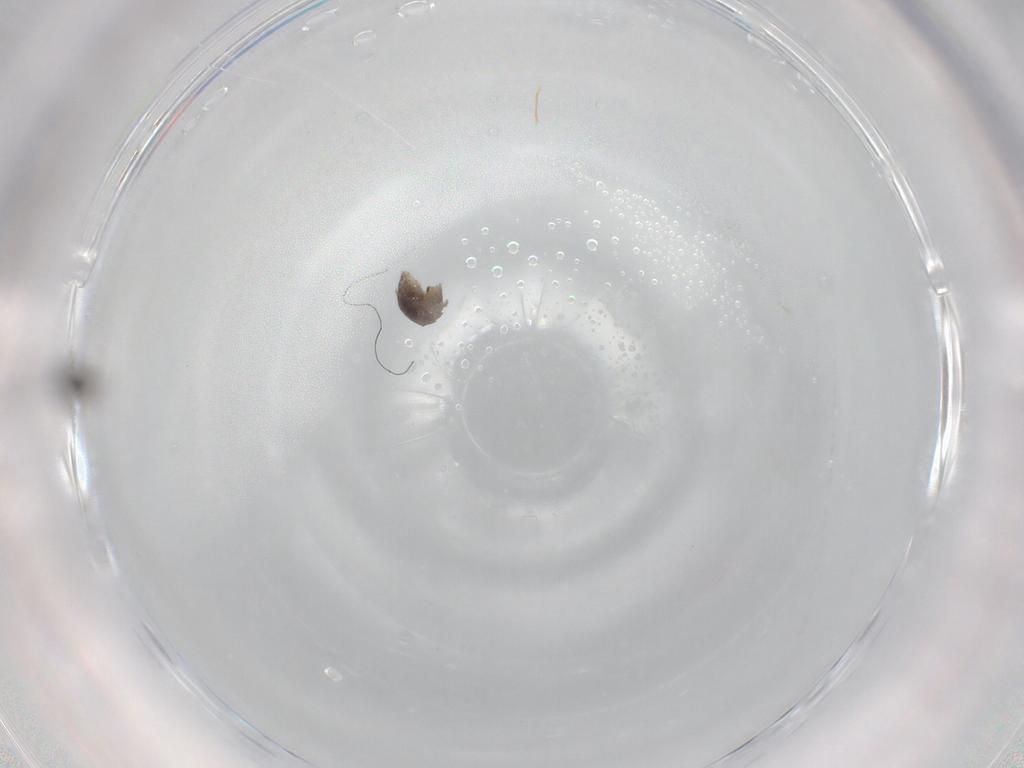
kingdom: Animalia
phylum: Arthropoda
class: Insecta
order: Diptera
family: Cecidomyiidae
